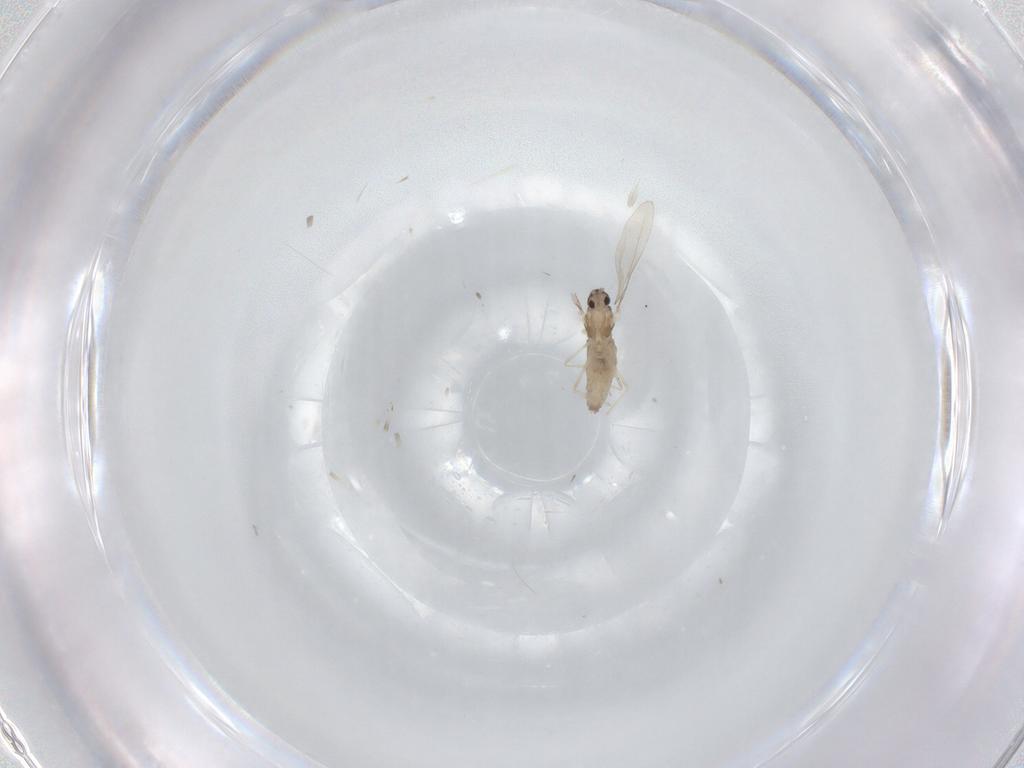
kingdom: Animalia
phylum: Arthropoda
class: Insecta
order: Diptera
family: Cecidomyiidae
